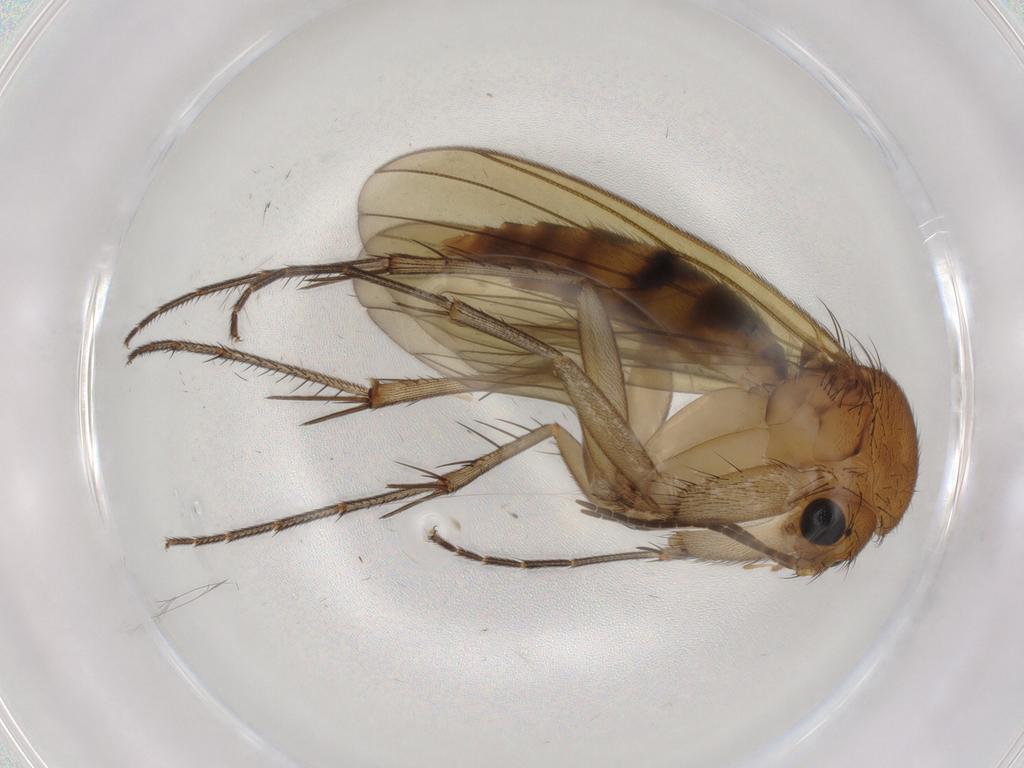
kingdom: Animalia
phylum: Arthropoda
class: Insecta
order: Diptera
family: Mycetophilidae
